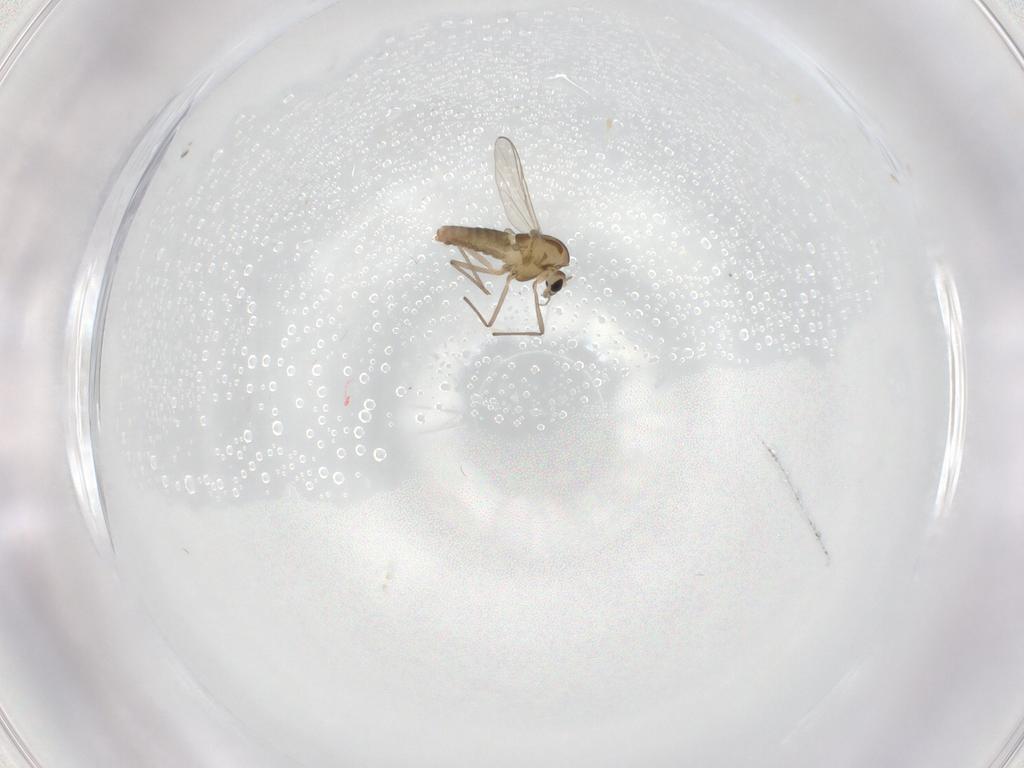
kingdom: Animalia
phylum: Arthropoda
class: Insecta
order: Diptera
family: Chironomidae
